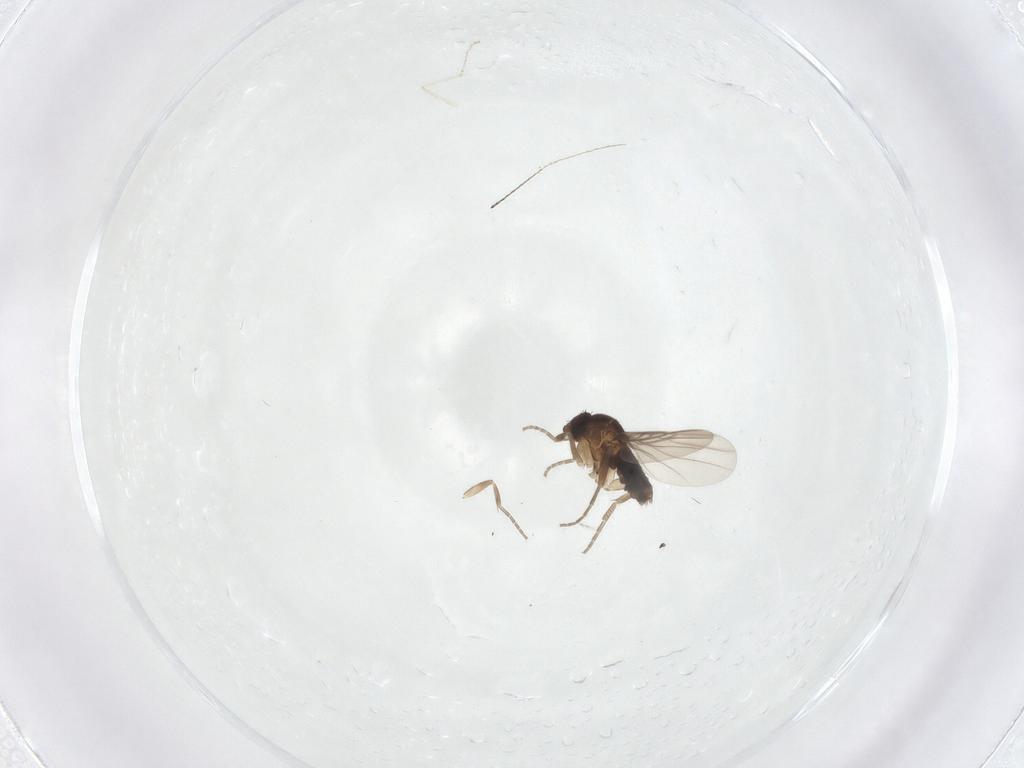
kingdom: Animalia
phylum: Arthropoda
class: Insecta
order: Diptera
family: Phoridae
